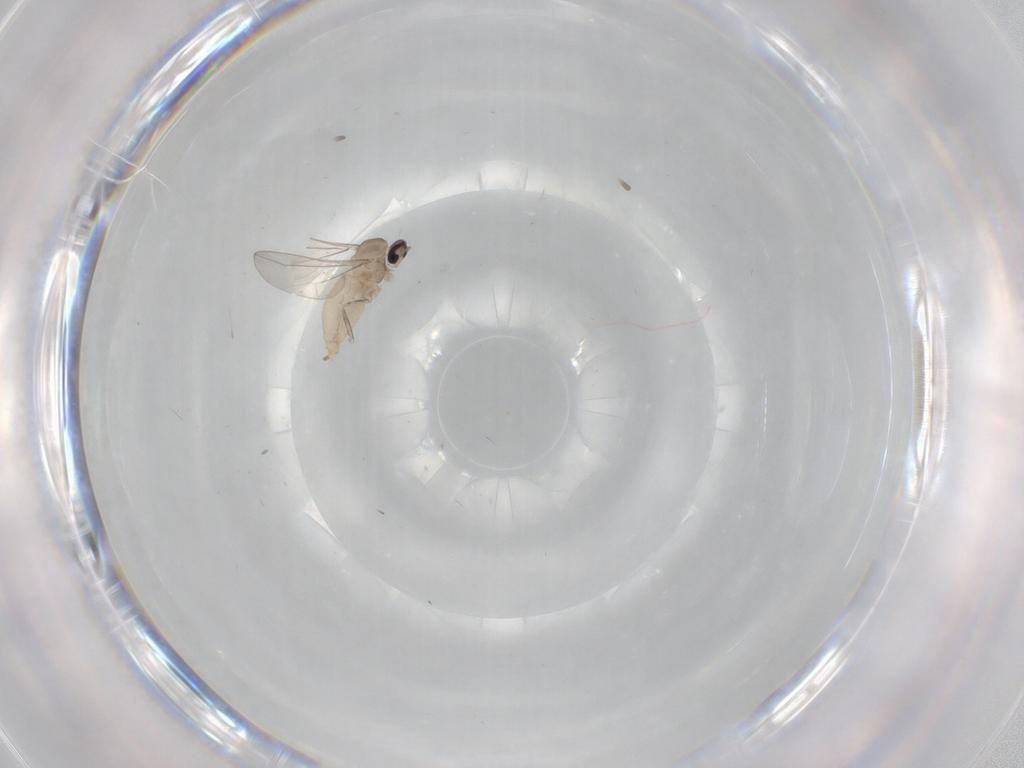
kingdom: Animalia
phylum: Arthropoda
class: Insecta
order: Diptera
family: Cecidomyiidae
